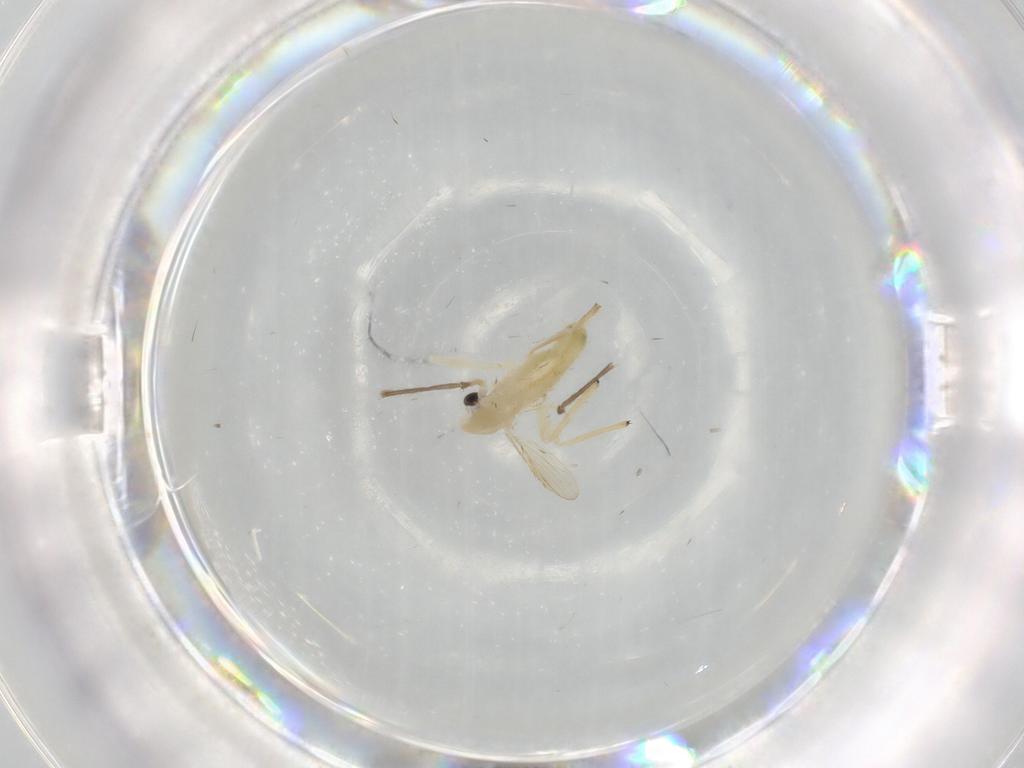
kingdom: Animalia
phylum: Arthropoda
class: Insecta
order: Diptera
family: Chironomidae
